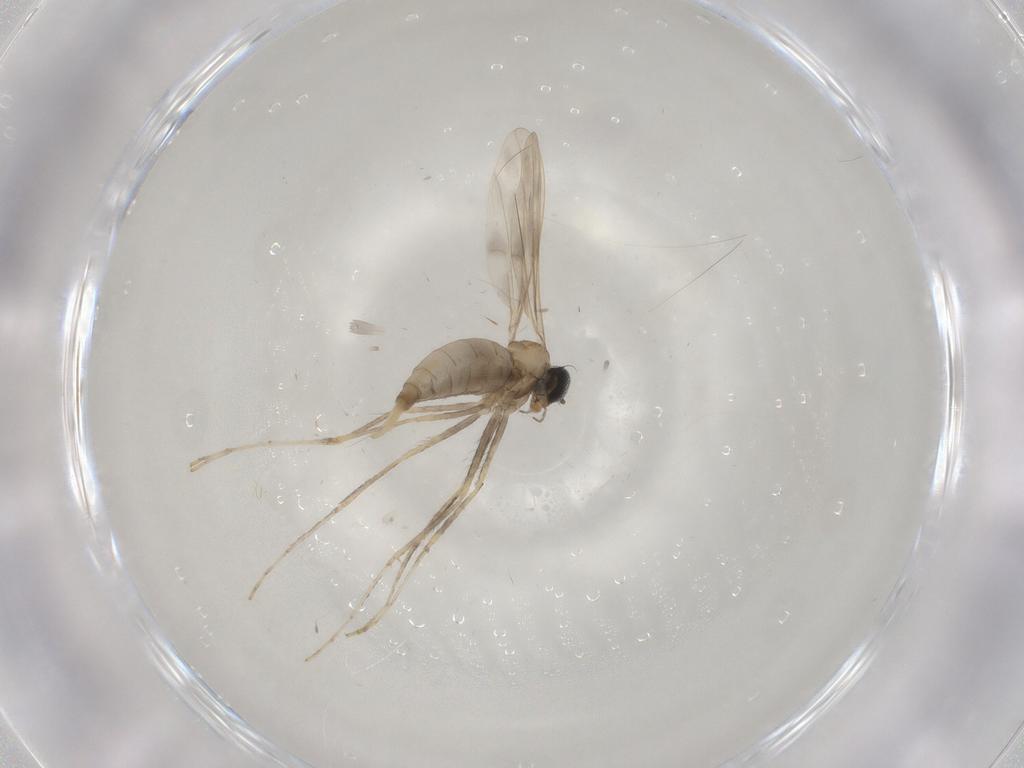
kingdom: Animalia
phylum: Arthropoda
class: Insecta
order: Diptera
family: Cecidomyiidae
